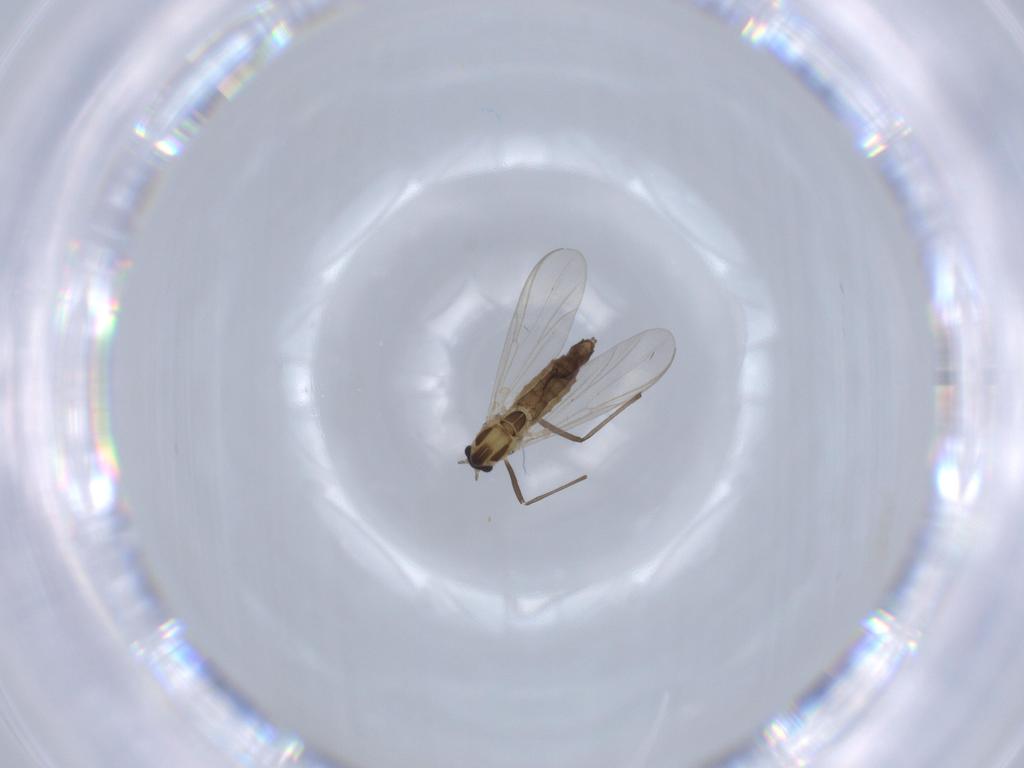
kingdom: Animalia
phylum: Arthropoda
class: Insecta
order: Diptera
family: Chironomidae
